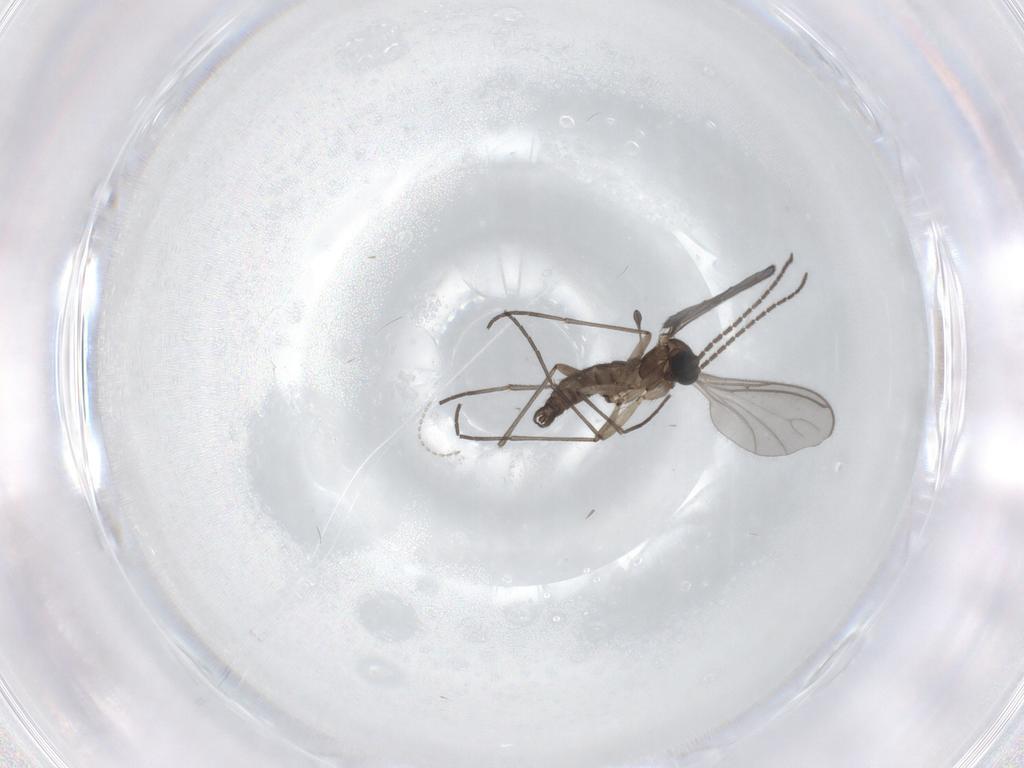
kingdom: Animalia
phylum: Arthropoda
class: Insecta
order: Diptera
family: Cecidomyiidae
